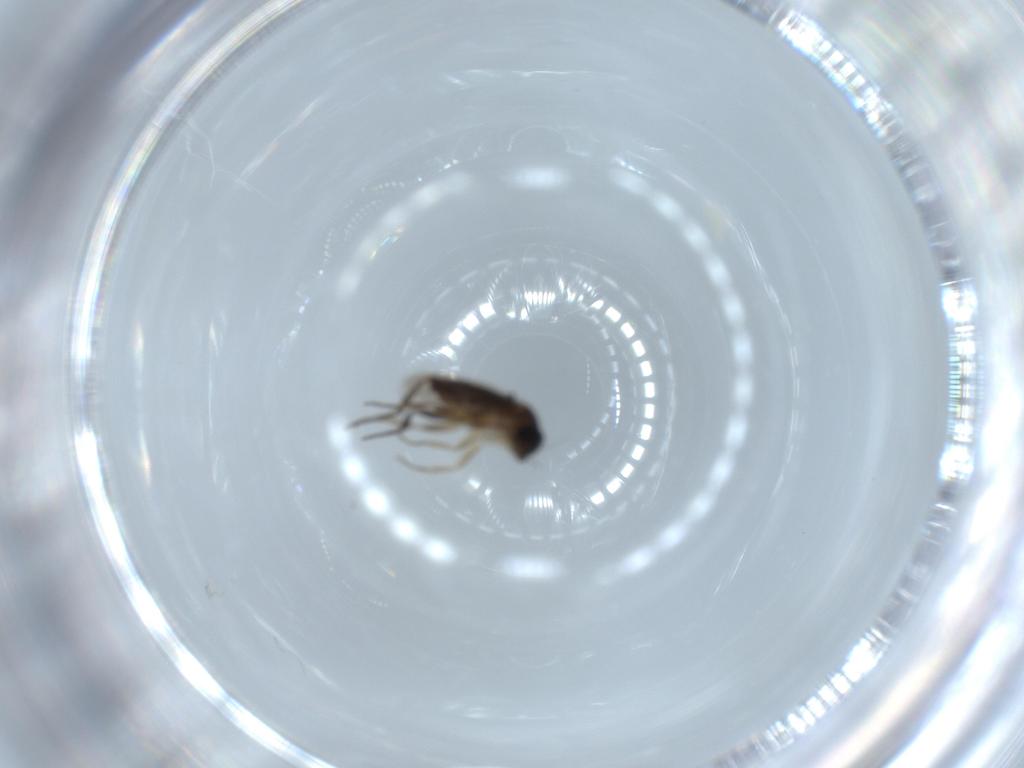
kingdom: Animalia
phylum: Arthropoda
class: Insecta
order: Diptera
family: Phoridae
